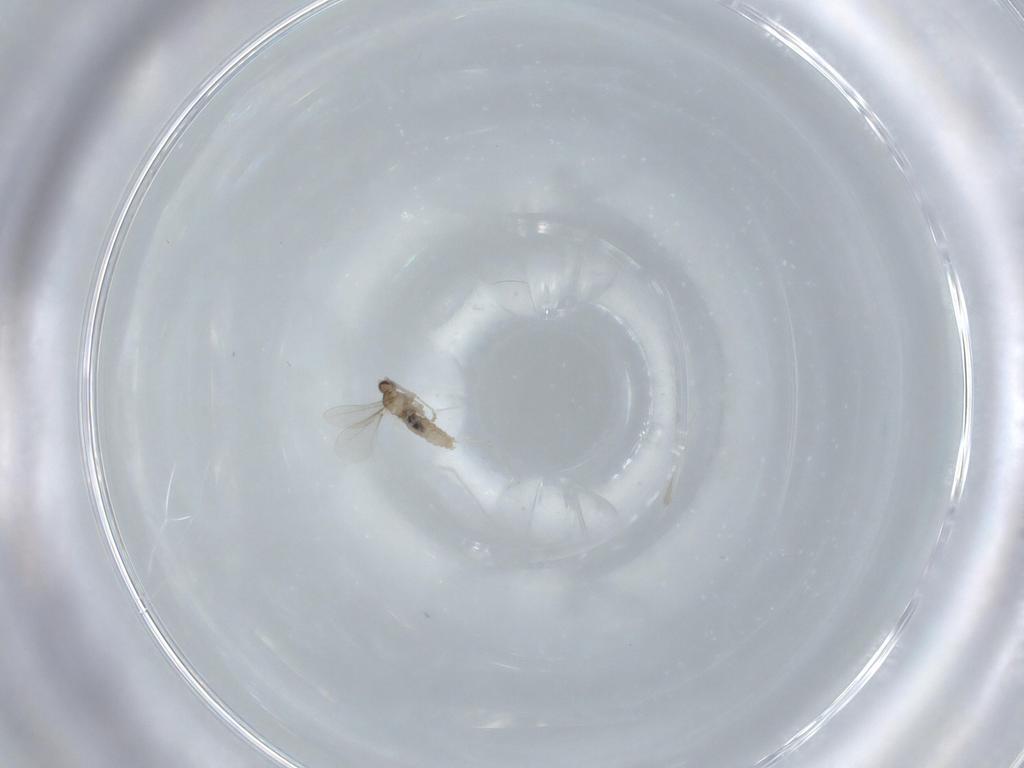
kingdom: Animalia
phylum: Arthropoda
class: Insecta
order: Diptera
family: Cecidomyiidae
